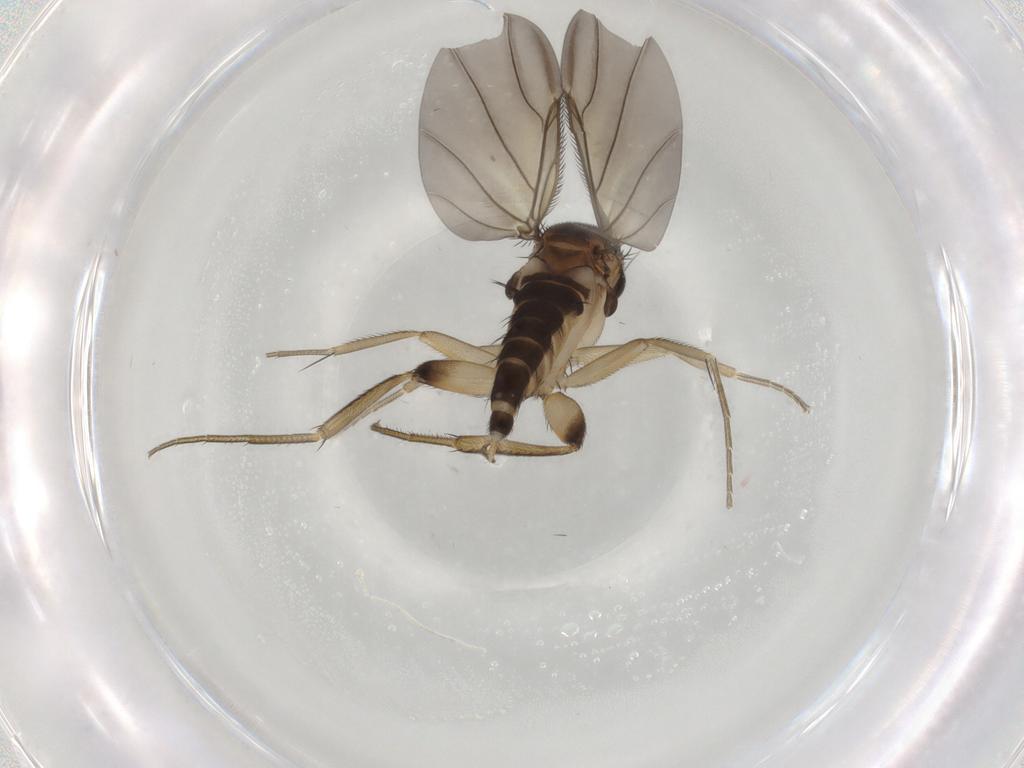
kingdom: Animalia
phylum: Arthropoda
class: Insecta
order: Diptera
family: Phoridae
